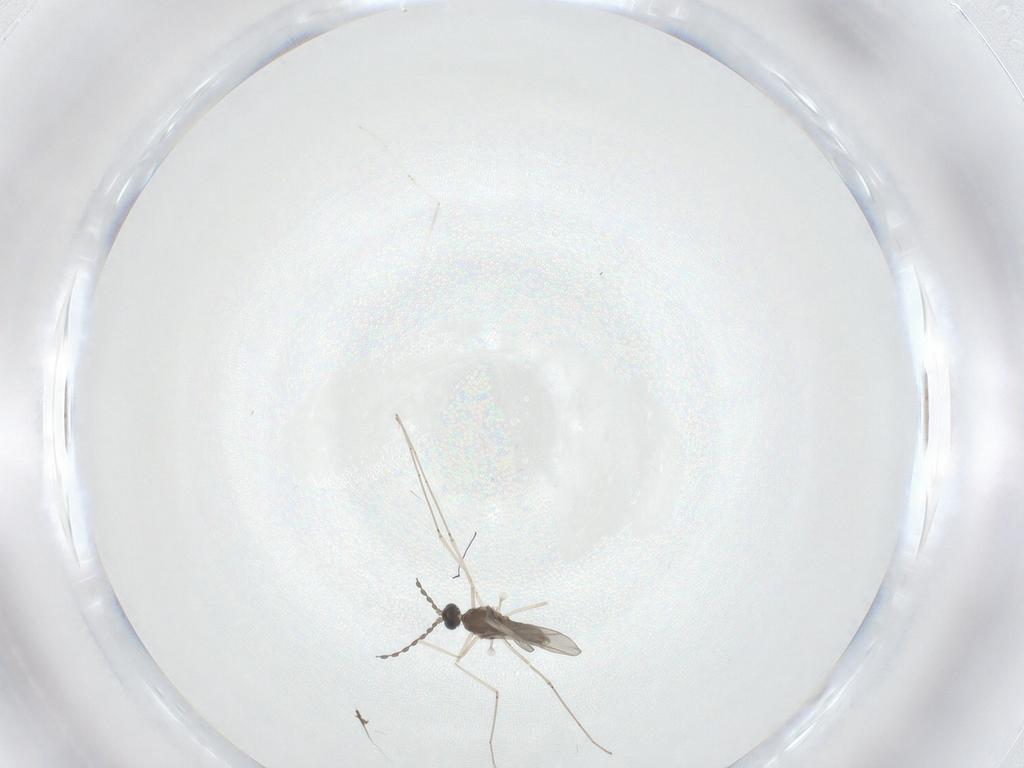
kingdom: Animalia
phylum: Arthropoda
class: Insecta
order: Diptera
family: Cecidomyiidae
